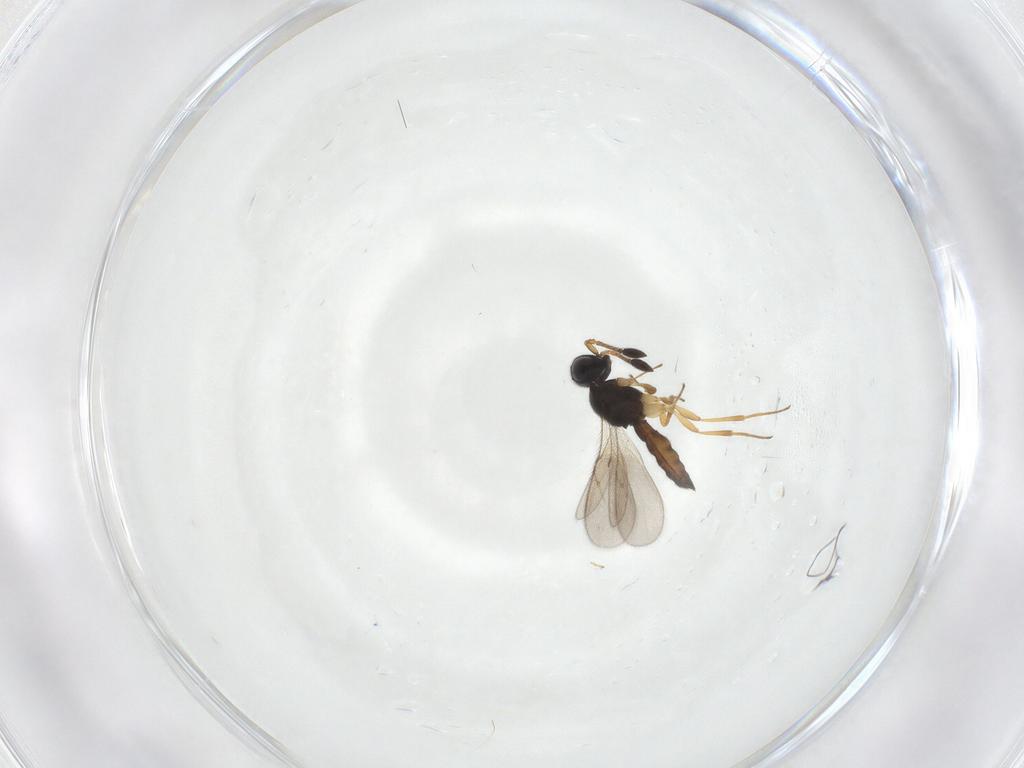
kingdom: Animalia
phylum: Arthropoda
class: Insecta
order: Hymenoptera
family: Scelionidae
